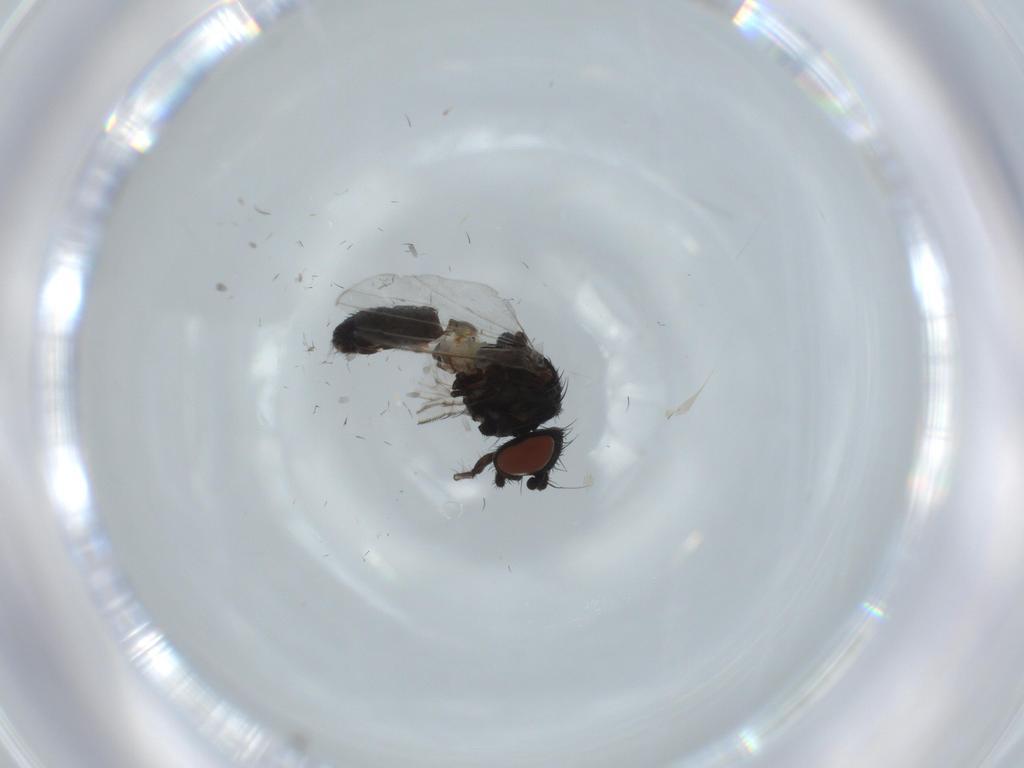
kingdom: Animalia
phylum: Arthropoda
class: Insecta
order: Diptera
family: Milichiidae
